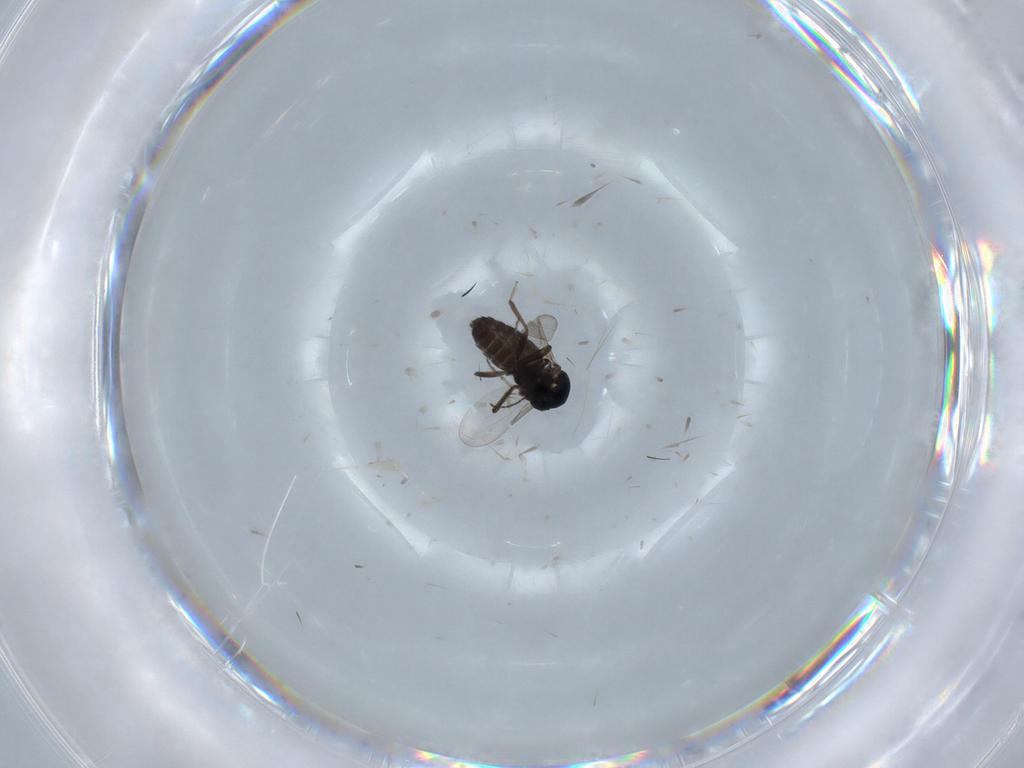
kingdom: Animalia
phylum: Arthropoda
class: Insecta
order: Diptera
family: Ceratopogonidae
